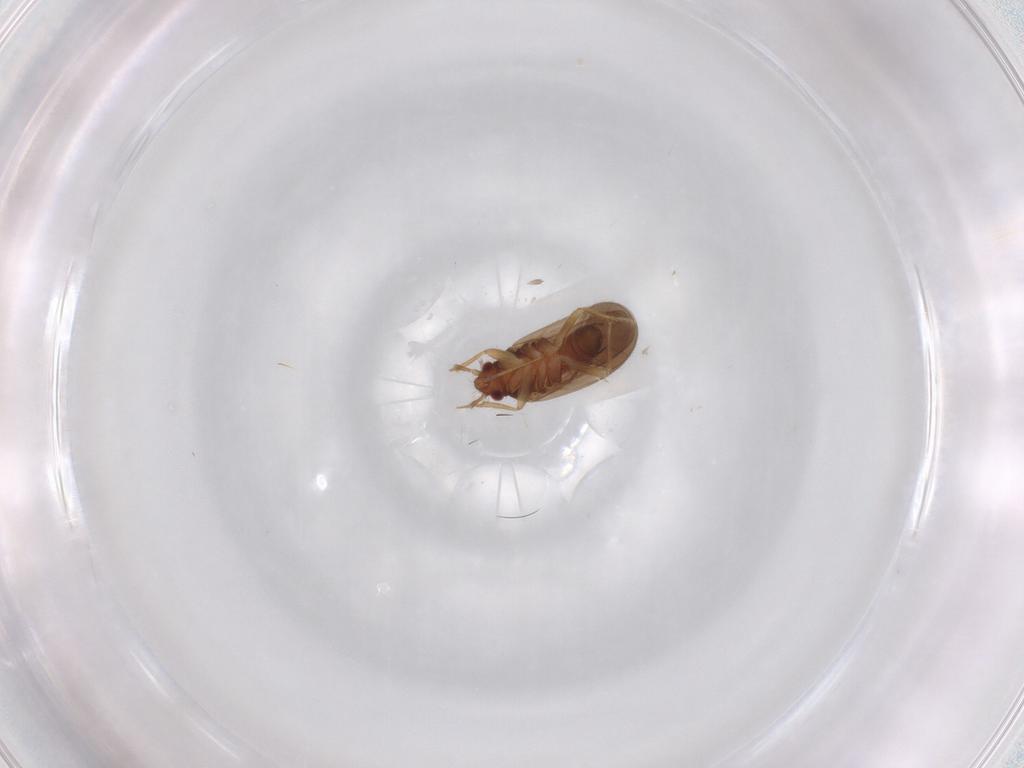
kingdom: Animalia
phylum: Arthropoda
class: Insecta
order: Hemiptera
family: Ceratocombidae
